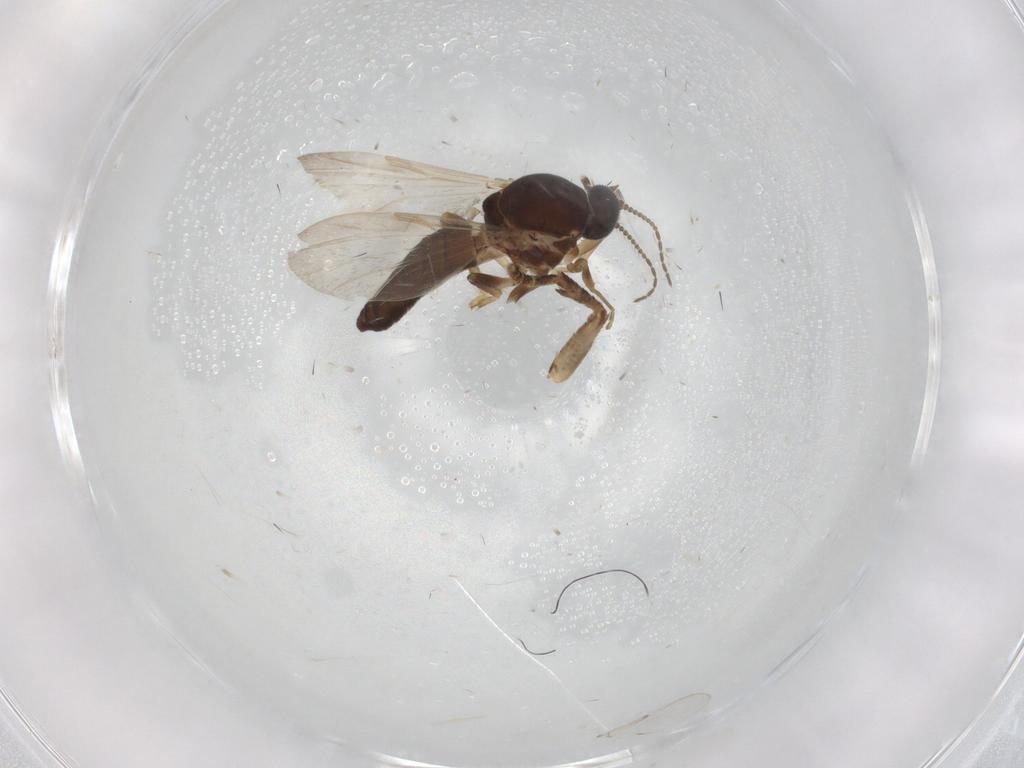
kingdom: Animalia
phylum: Arthropoda
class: Insecta
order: Diptera
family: Ceratopogonidae
